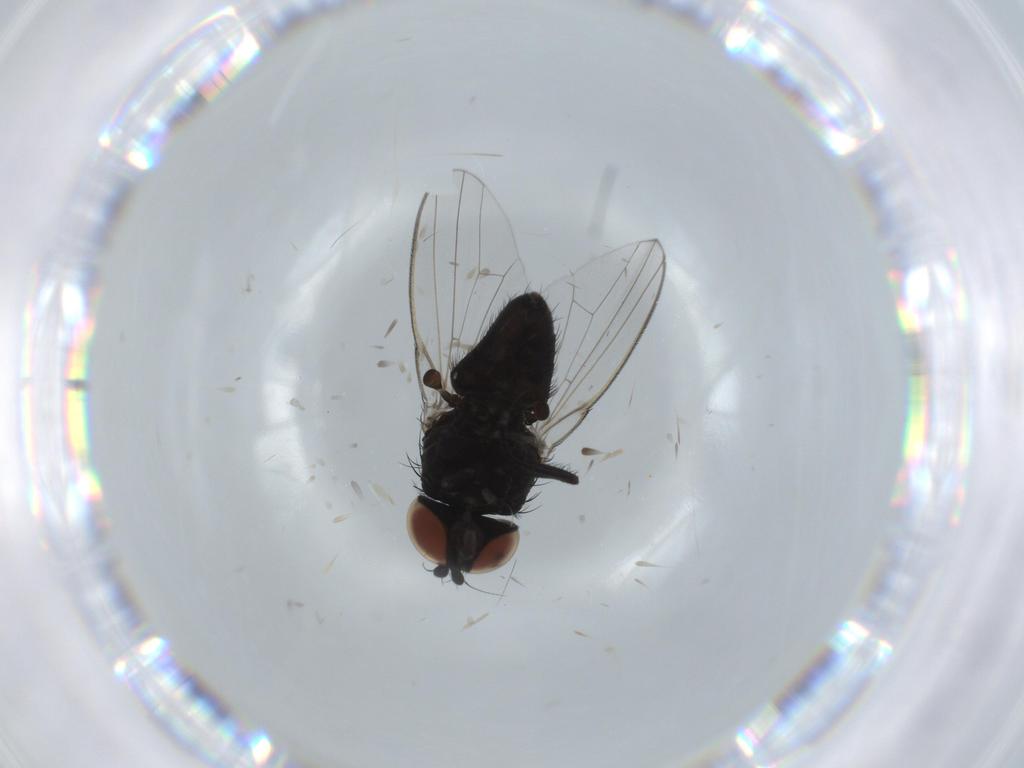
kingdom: Animalia
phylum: Arthropoda
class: Insecta
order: Diptera
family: Milichiidae
